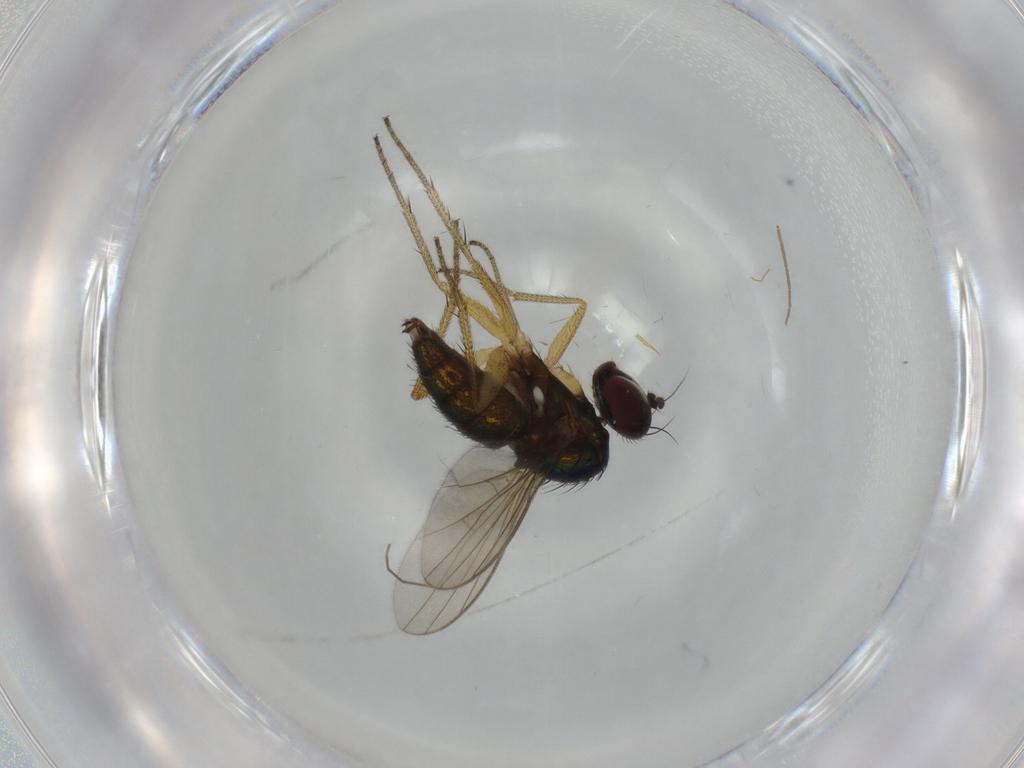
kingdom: Animalia
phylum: Arthropoda
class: Insecta
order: Diptera
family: Dolichopodidae
